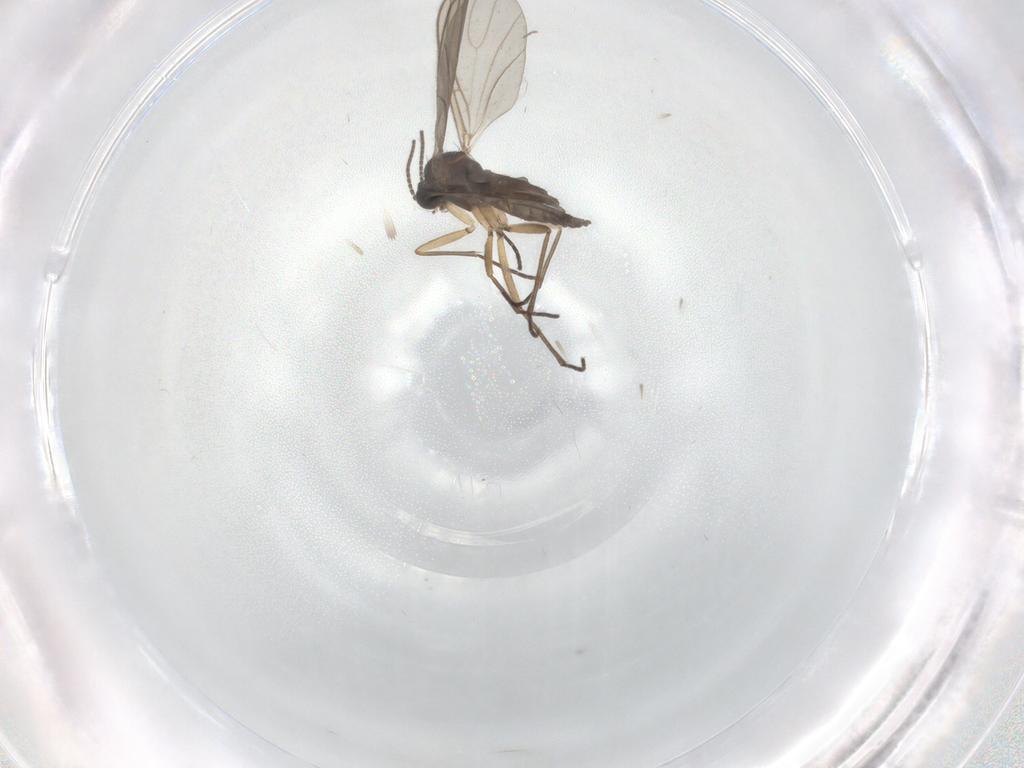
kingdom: Animalia
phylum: Arthropoda
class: Insecta
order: Diptera
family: Sciaridae
